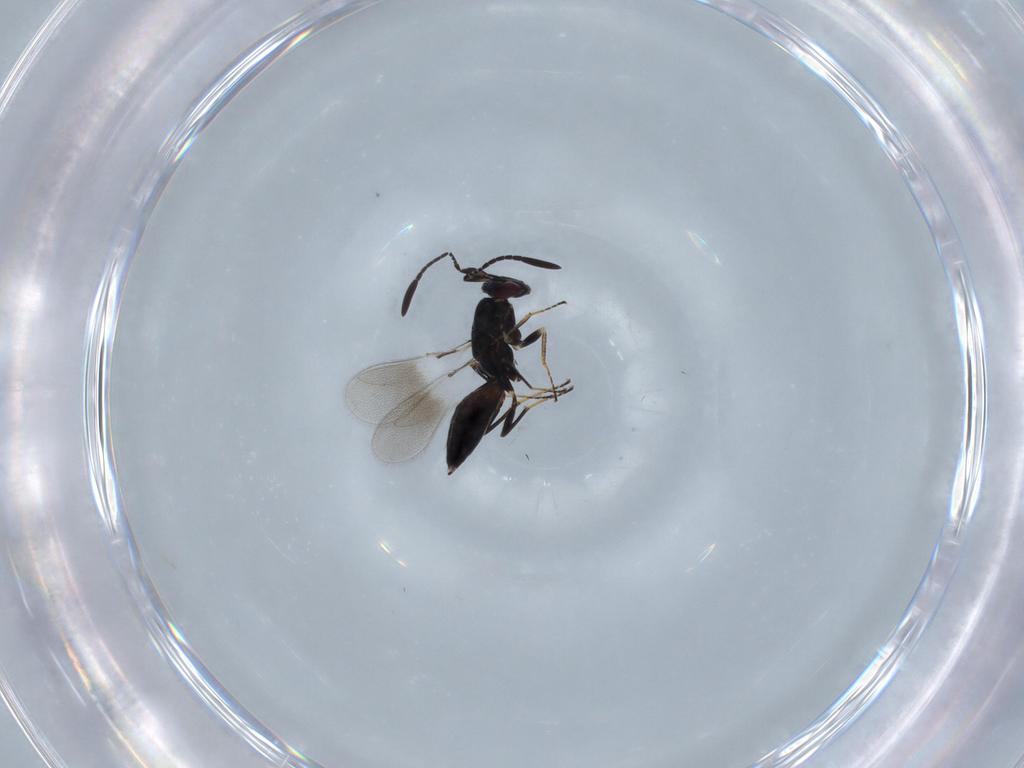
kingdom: Animalia
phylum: Arthropoda
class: Insecta
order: Hymenoptera
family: Formicidae
